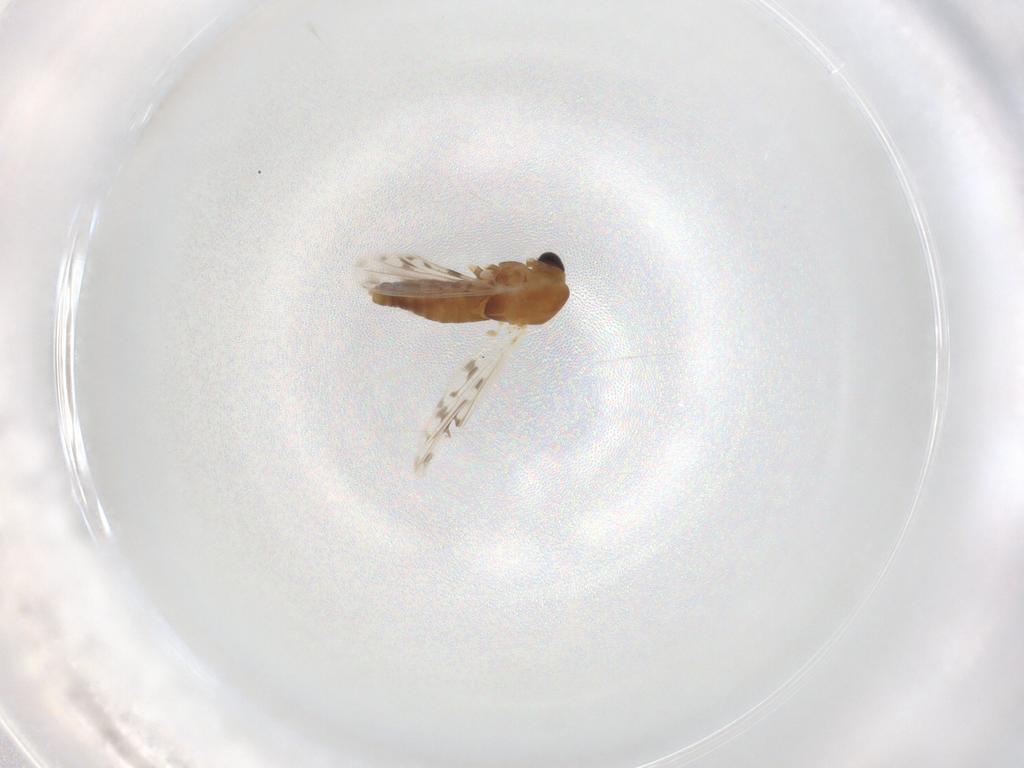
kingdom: Animalia
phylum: Arthropoda
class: Insecta
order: Diptera
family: Chironomidae
